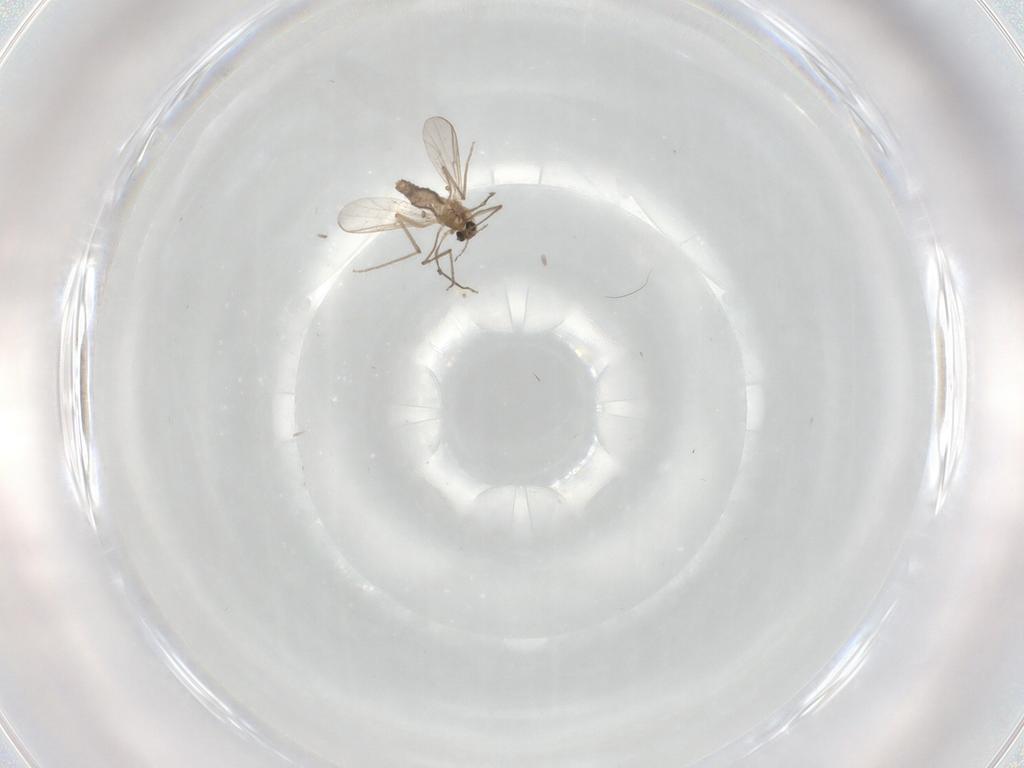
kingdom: Animalia
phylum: Arthropoda
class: Insecta
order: Diptera
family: Chironomidae
